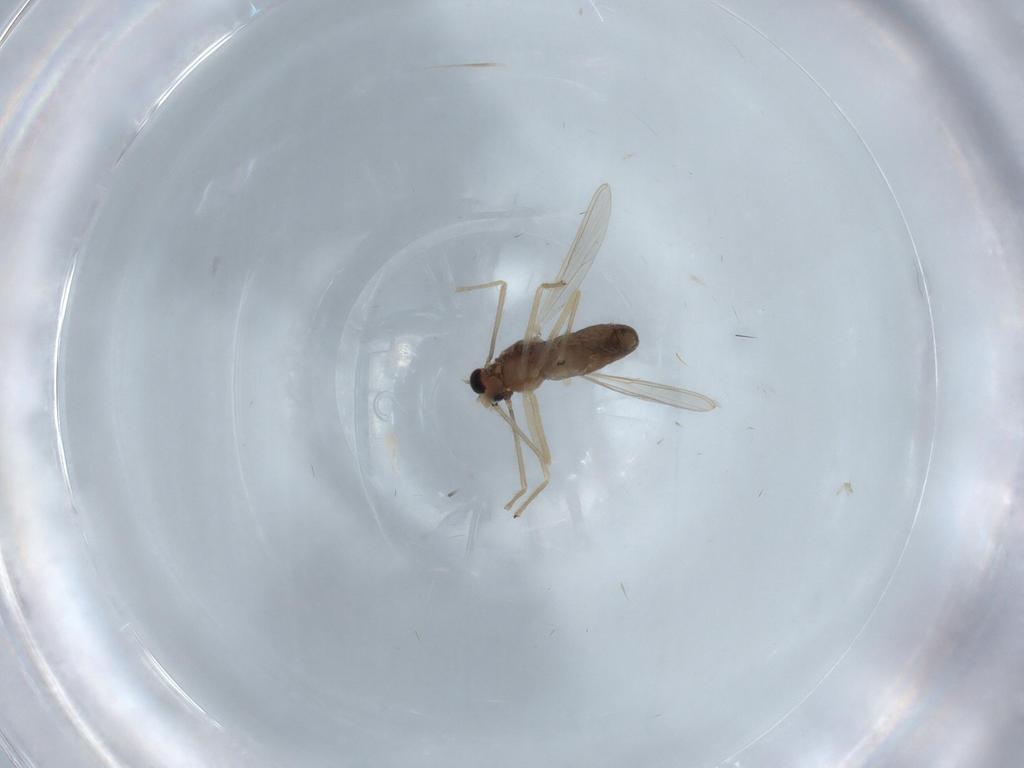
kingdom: Animalia
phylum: Arthropoda
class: Insecta
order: Diptera
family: Chironomidae
